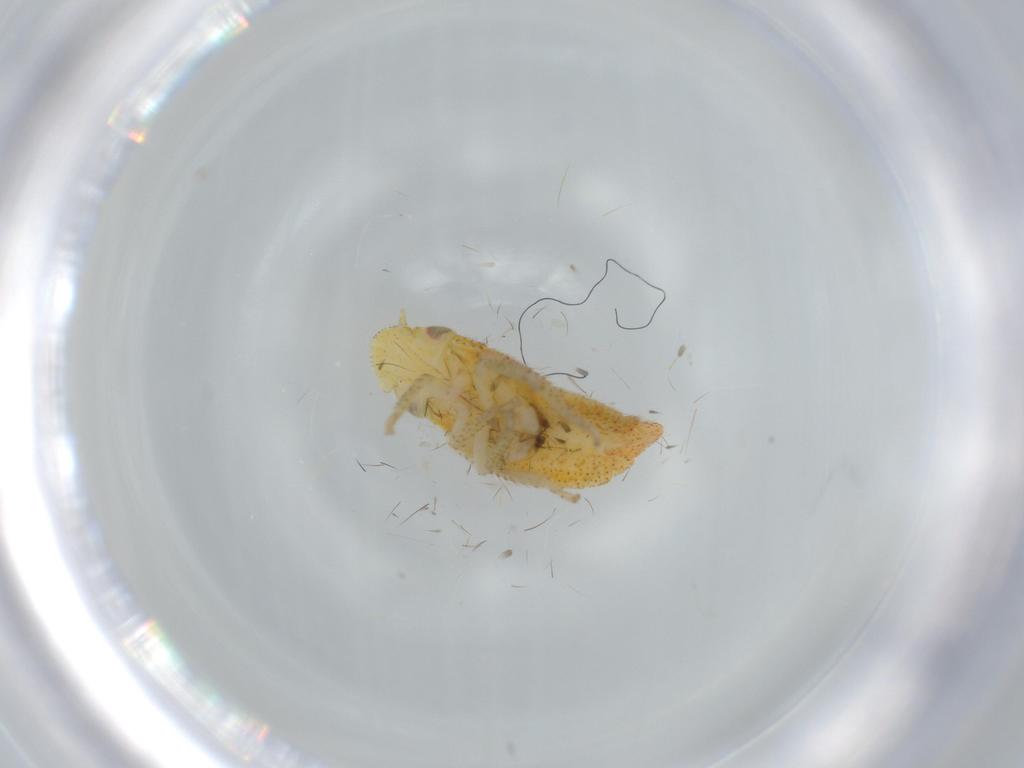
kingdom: Animalia
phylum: Arthropoda
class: Insecta
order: Hemiptera
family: Cicadellidae
